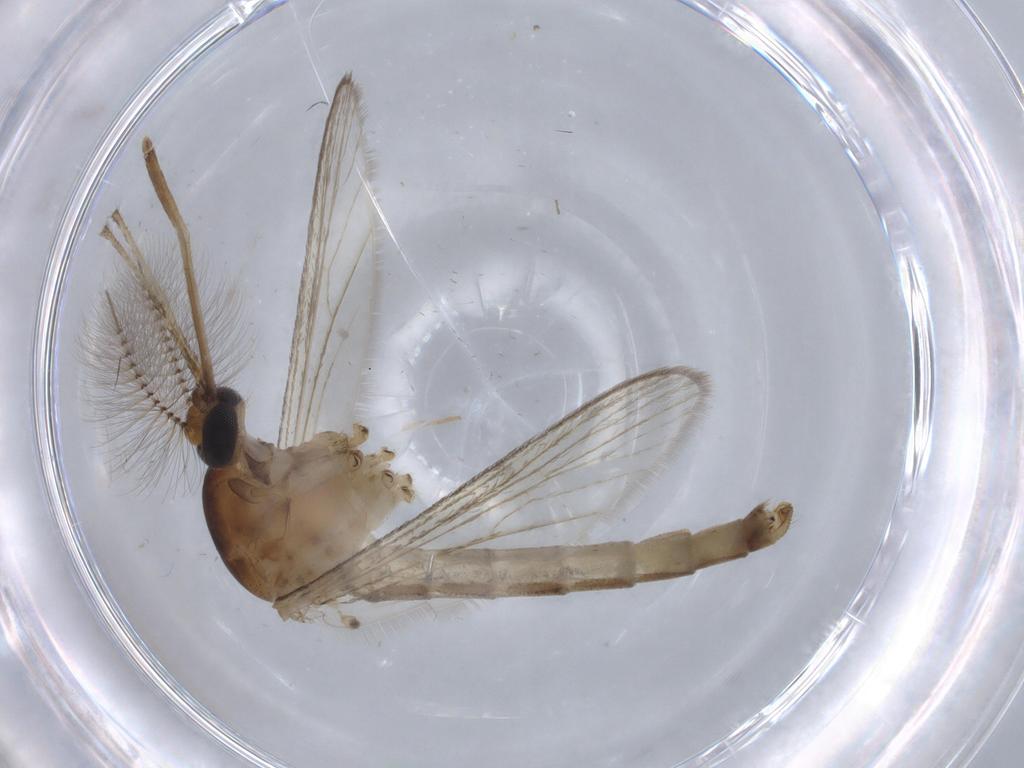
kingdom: Animalia
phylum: Arthropoda
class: Insecta
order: Diptera
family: Culicidae
